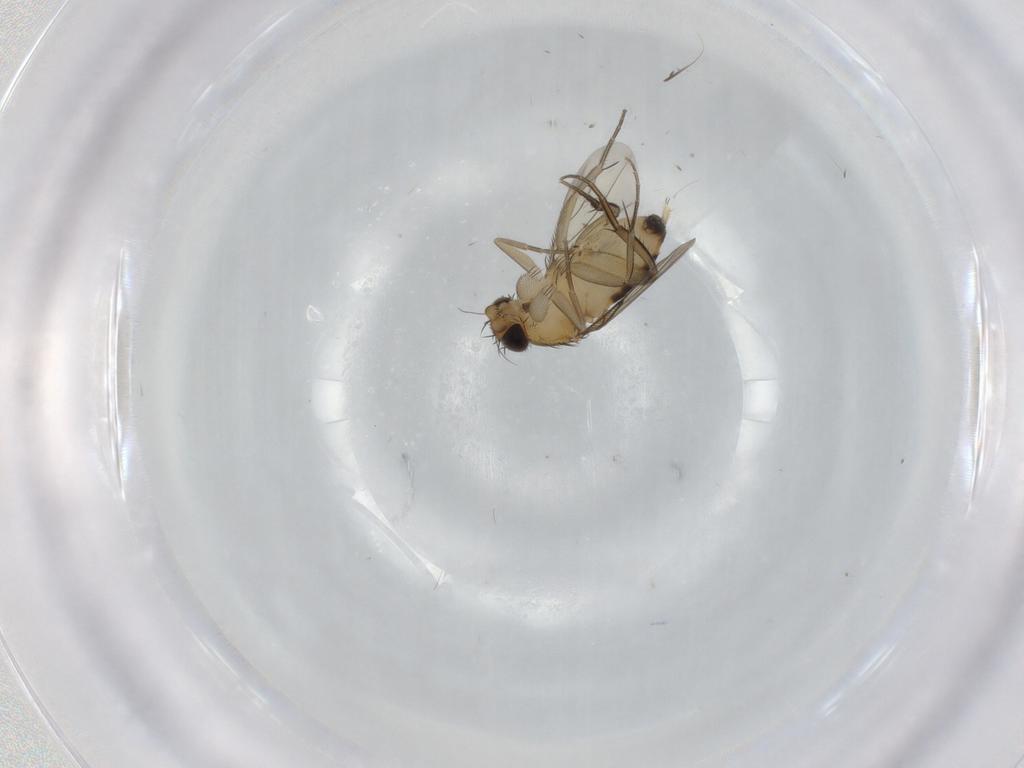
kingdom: Animalia
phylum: Arthropoda
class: Insecta
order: Diptera
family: Phoridae
